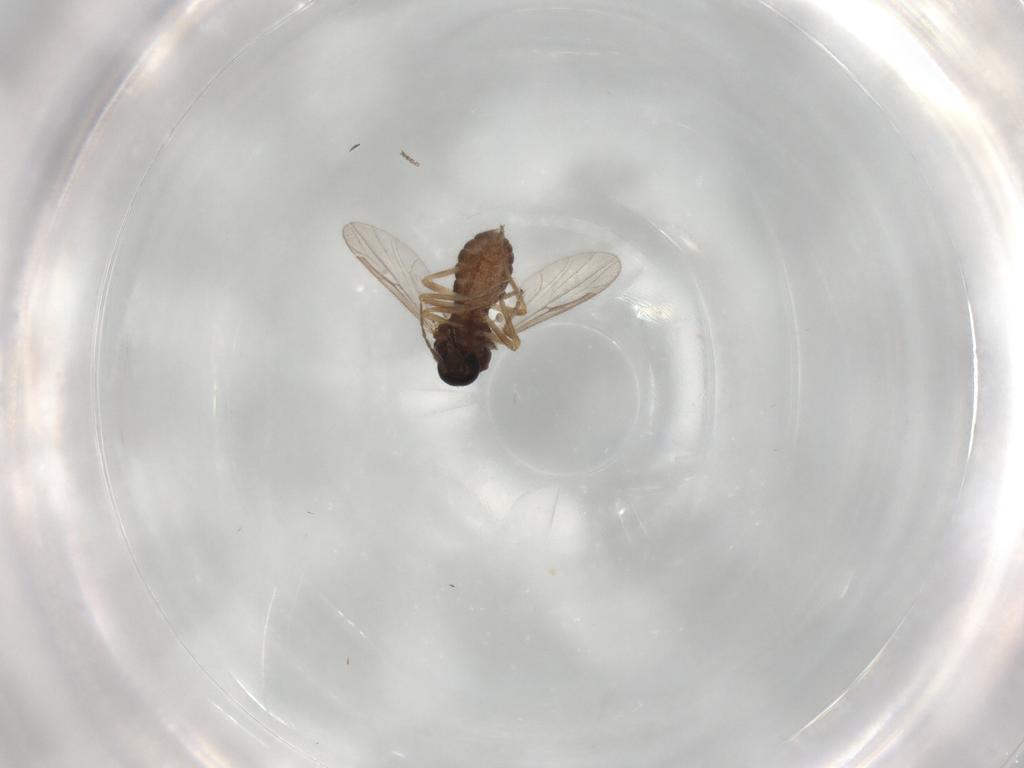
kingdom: Animalia
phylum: Arthropoda
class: Insecta
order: Diptera
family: Ceratopogonidae
